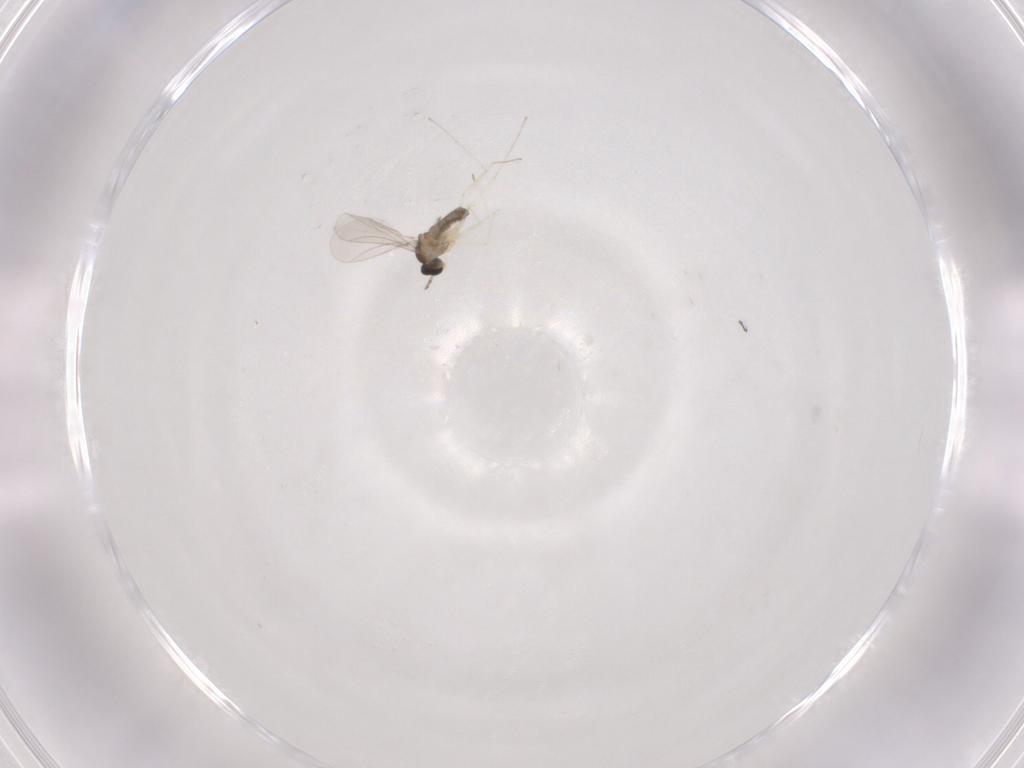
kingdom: Animalia
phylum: Arthropoda
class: Insecta
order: Diptera
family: Cecidomyiidae
